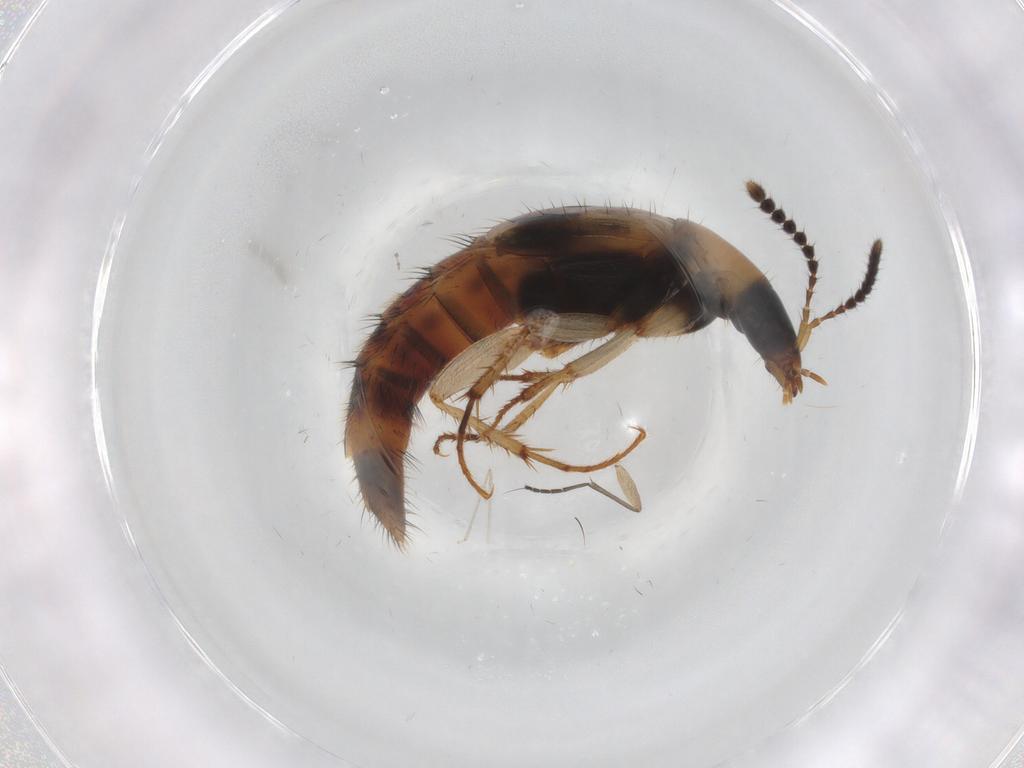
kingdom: Animalia
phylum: Arthropoda
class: Insecta
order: Coleoptera
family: Staphylinidae
